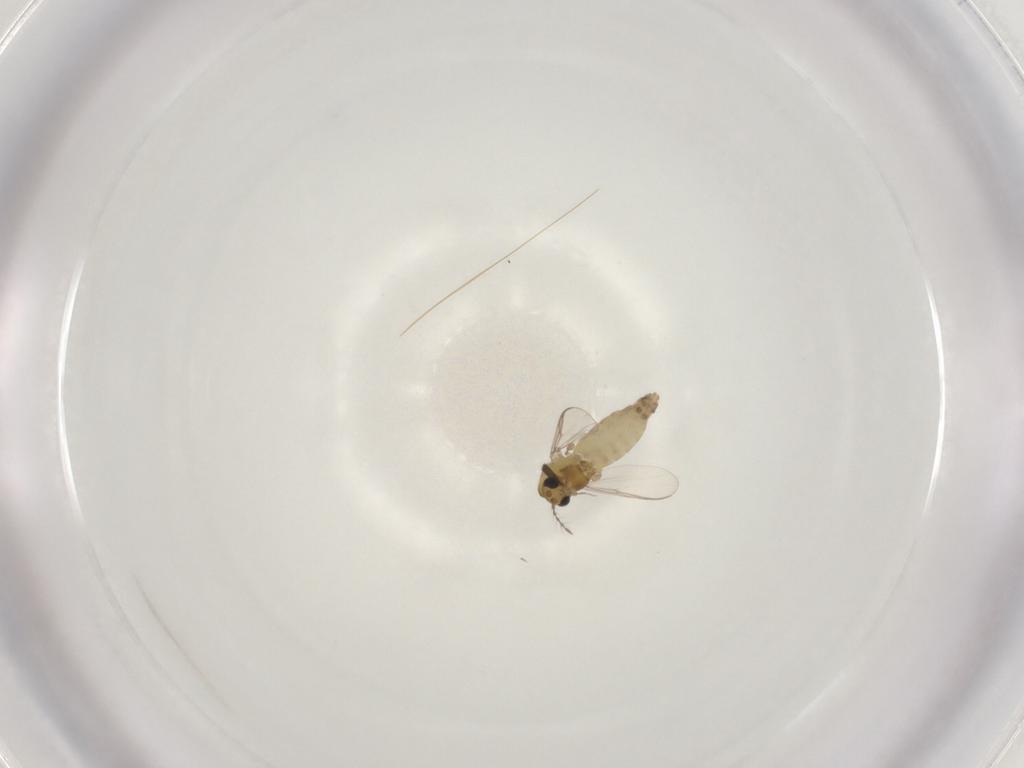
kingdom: Animalia
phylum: Arthropoda
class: Insecta
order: Diptera
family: Chironomidae
